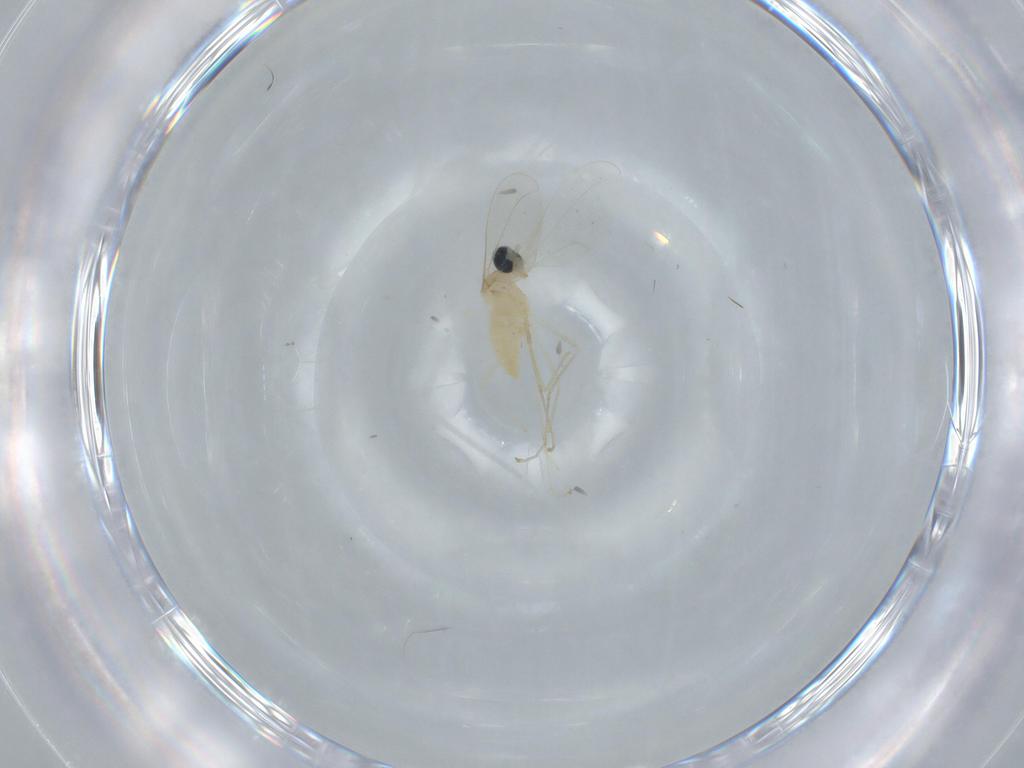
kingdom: Animalia
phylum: Arthropoda
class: Insecta
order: Diptera
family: Cecidomyiidae
